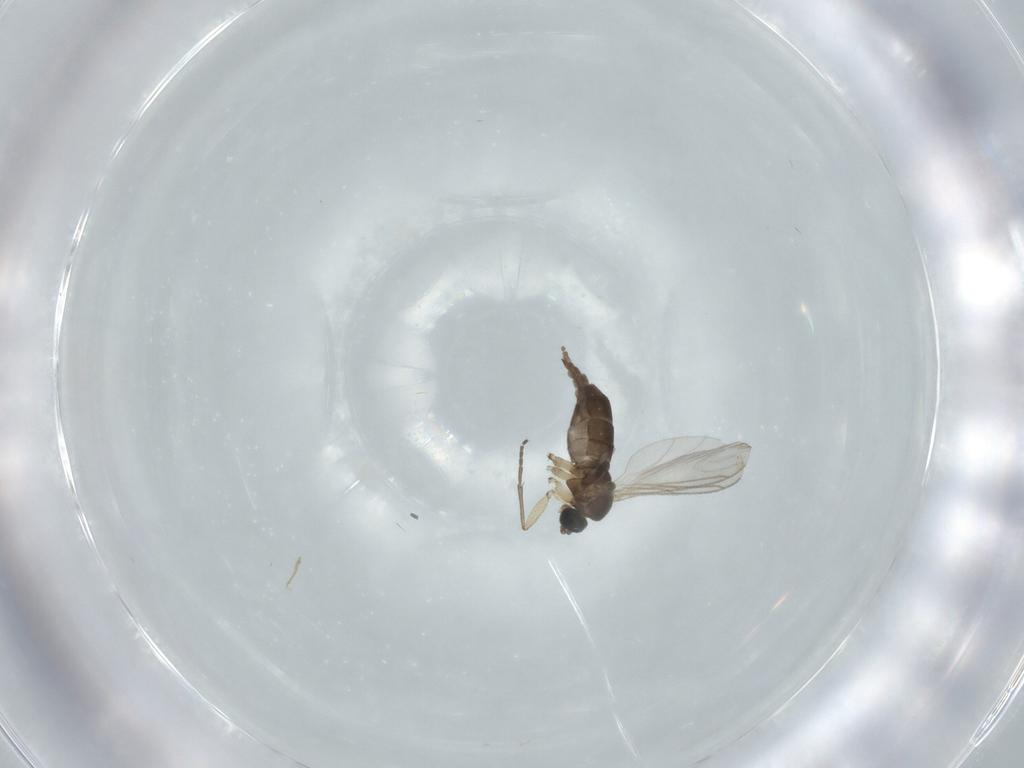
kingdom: Animalia
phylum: Arthropoda
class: Insecta
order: Diptera
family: Sciaridae
